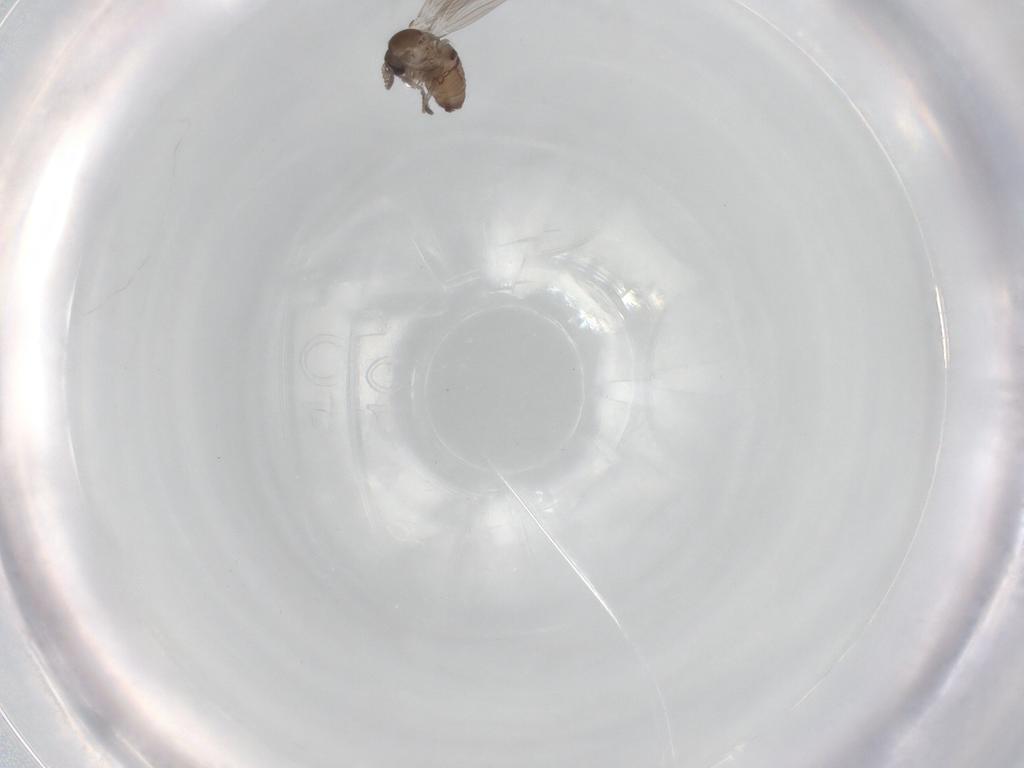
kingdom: Animalia
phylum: Arthropoda
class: Insecta
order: Diptera
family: Psychodidae
